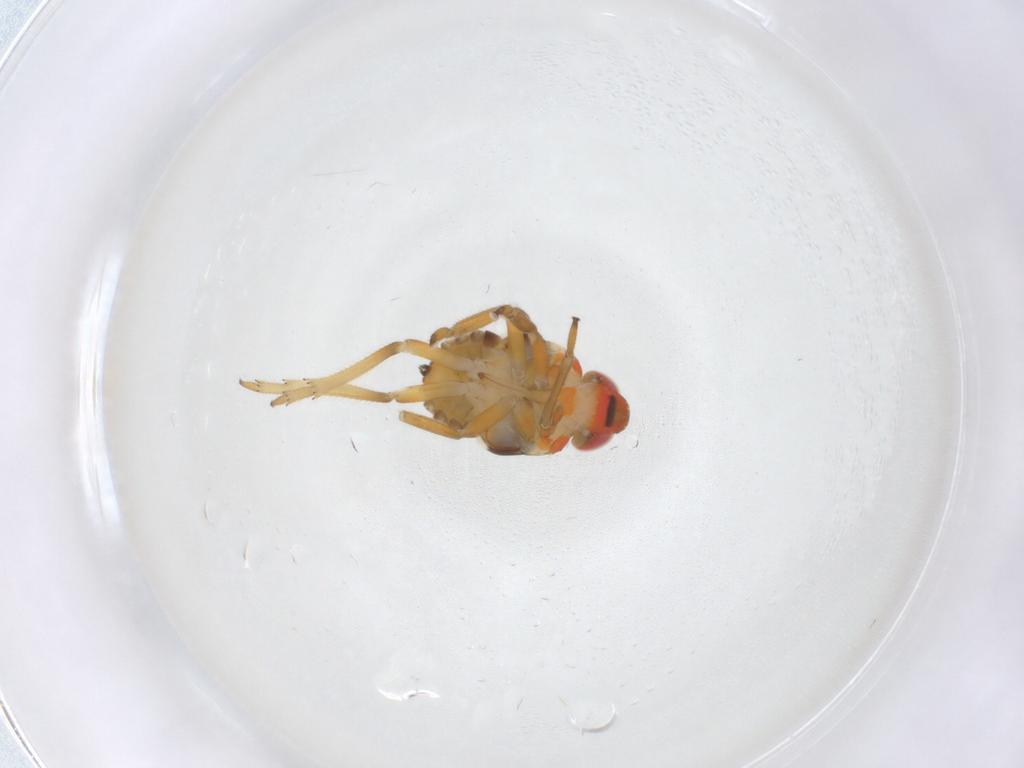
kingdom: Animalia
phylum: Arthropoda
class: Insecta
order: Hemiptera
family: Issidae
